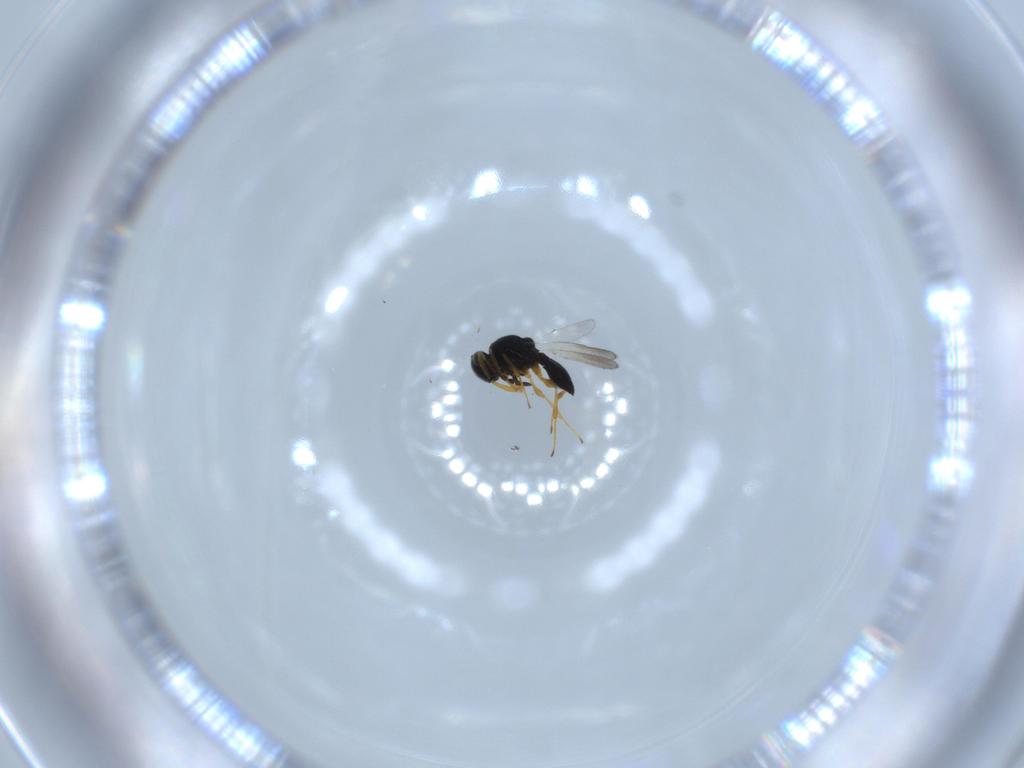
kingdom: Animalia
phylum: Arthropoda
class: Insecta
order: Hymenoptera
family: Platygastridae
